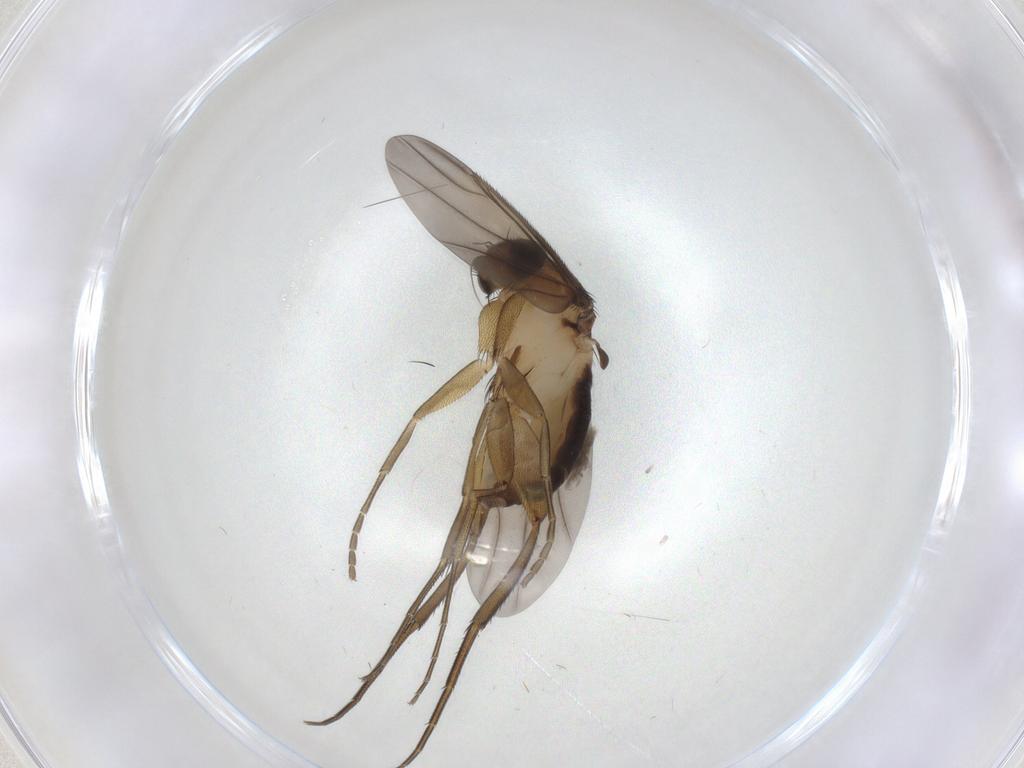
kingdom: Animalia
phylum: Arthropoda
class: Insecta
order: Diptera
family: Phoridae
